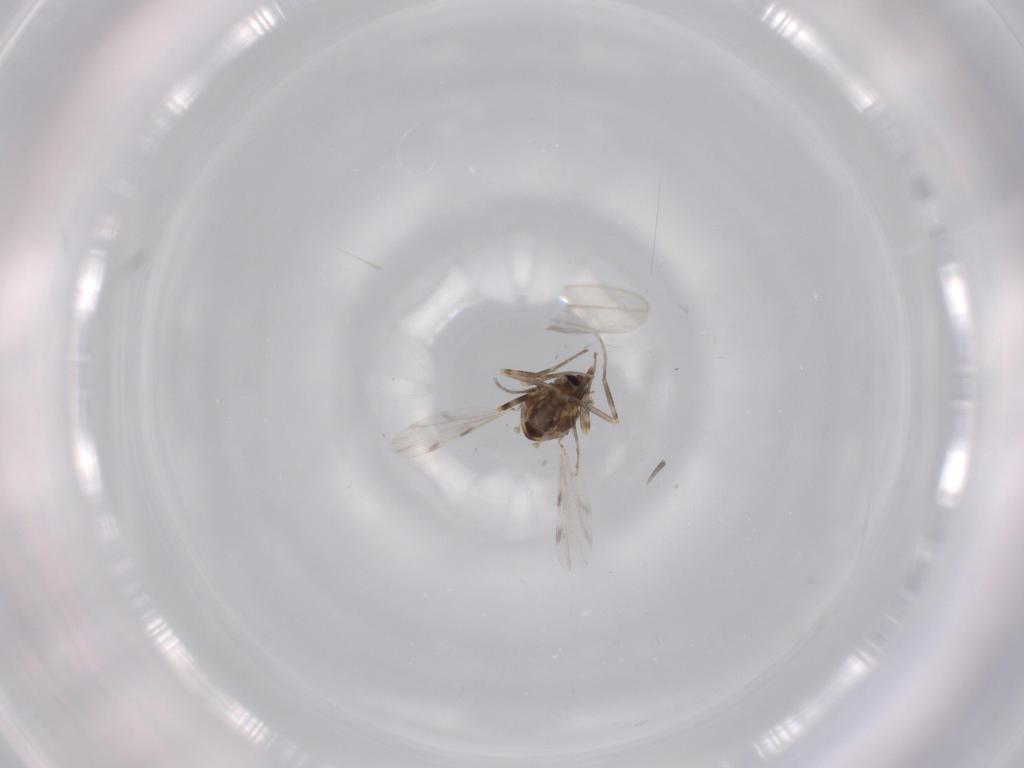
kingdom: Animalia
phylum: Arthropoda
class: Insecta
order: Diptera
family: Ceratopogonidae
